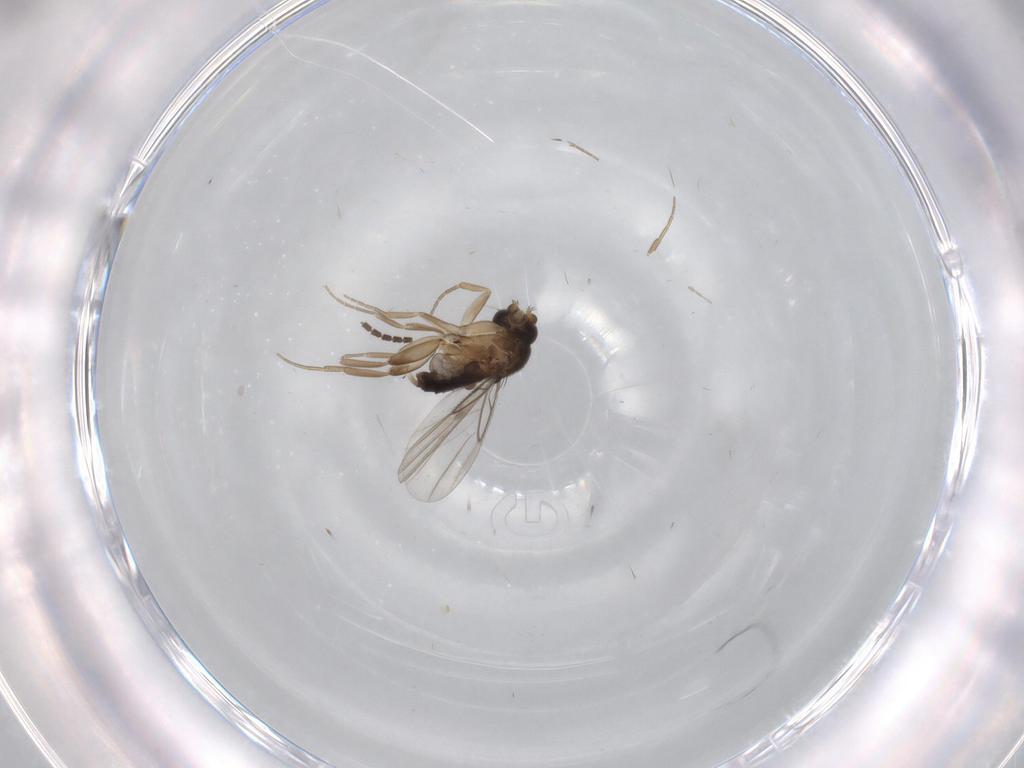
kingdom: Animalia
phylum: Arthropoda
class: Insecta
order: Diptera
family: Phoridae
